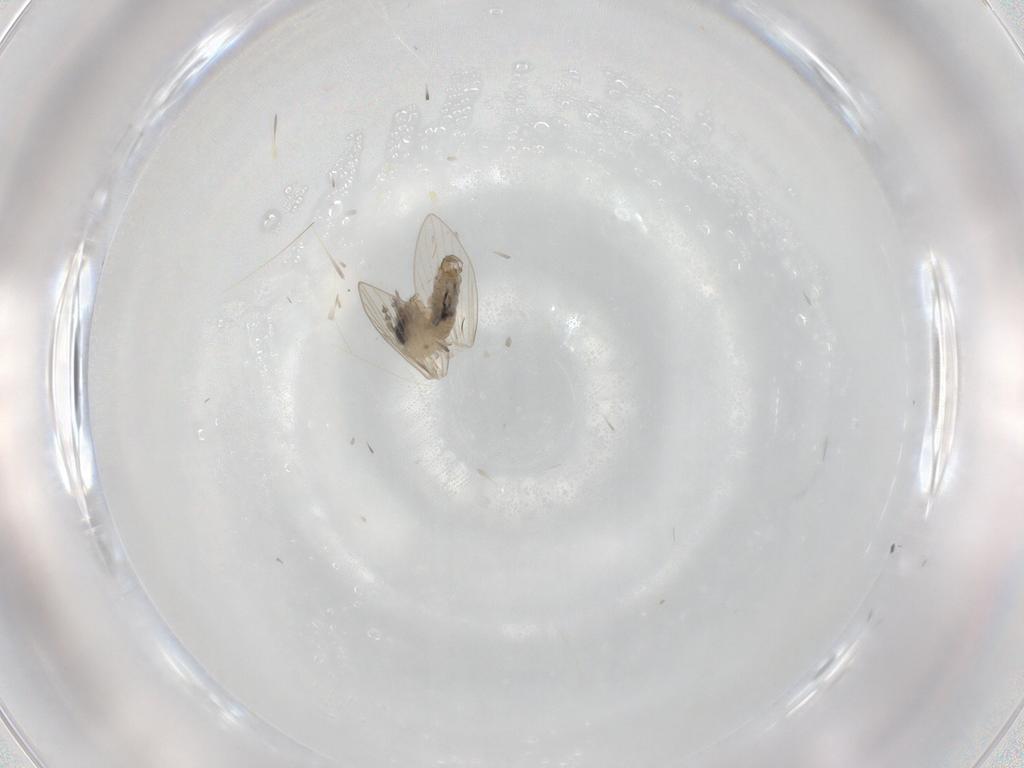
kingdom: Animalia
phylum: Arthropoda
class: Insecta
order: Diptera
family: Psychodidae
